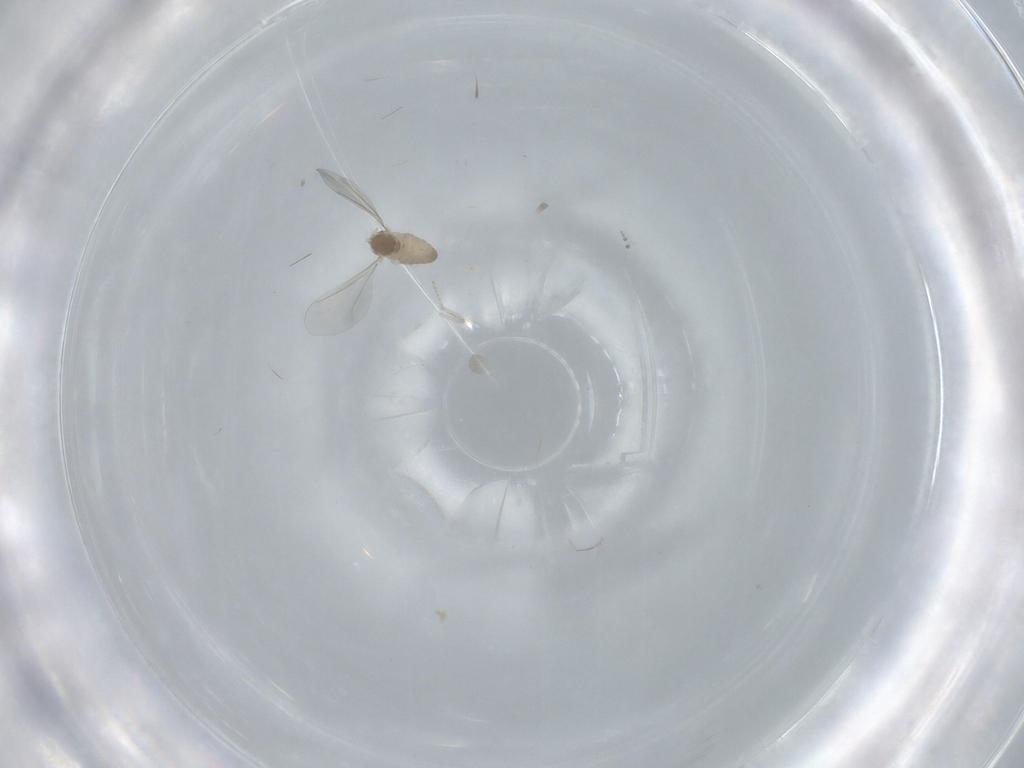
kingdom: Animalia
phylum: Arthropoda
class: Insecta
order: Diptera
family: Cecidomyiidae
